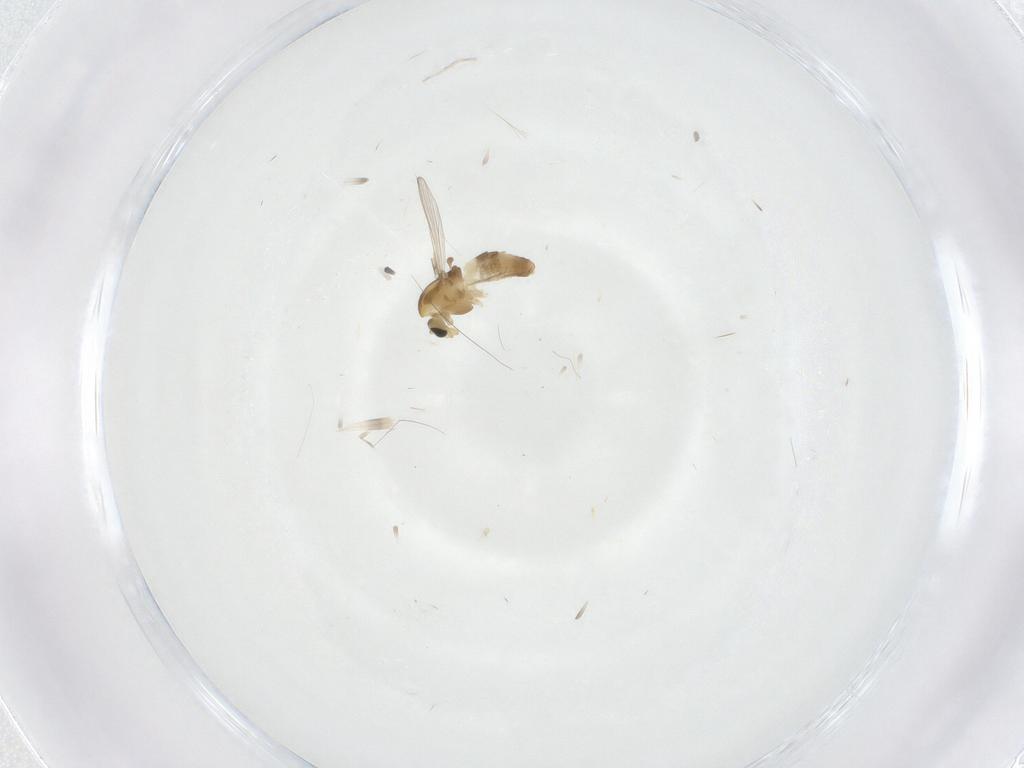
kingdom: Animalia
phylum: Arthropoda
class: Insecta
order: Diptera
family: Chironomidae
